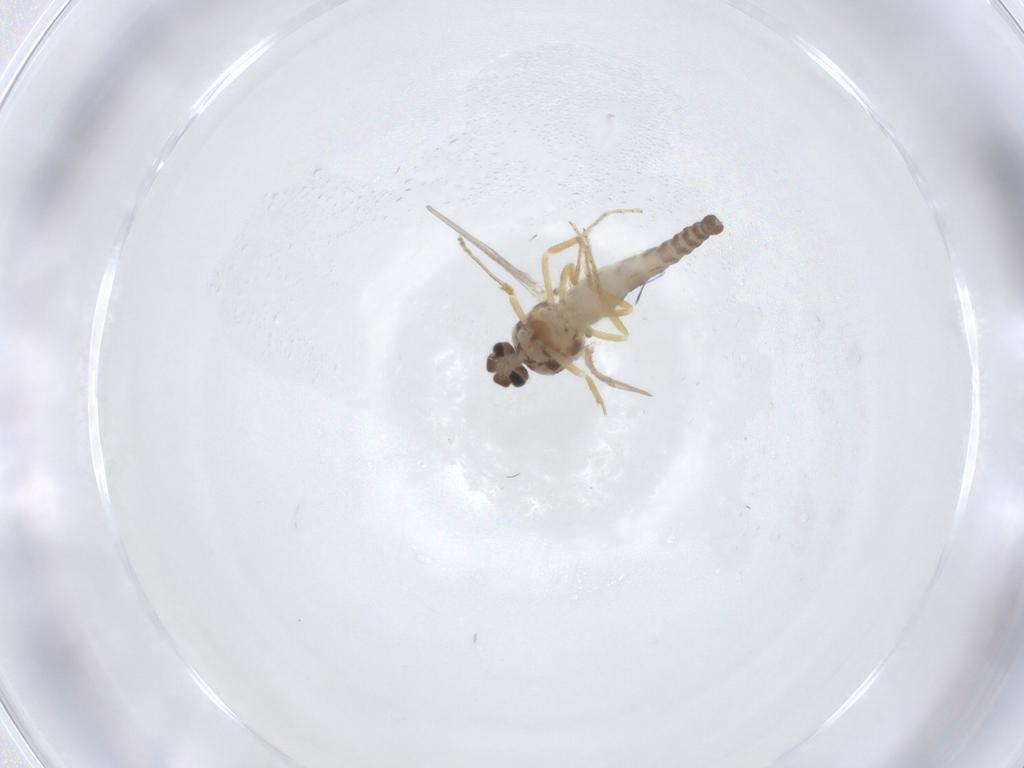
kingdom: Animalia
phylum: Arthropoda
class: Insecta
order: Diptera
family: Ceratopogonidae
